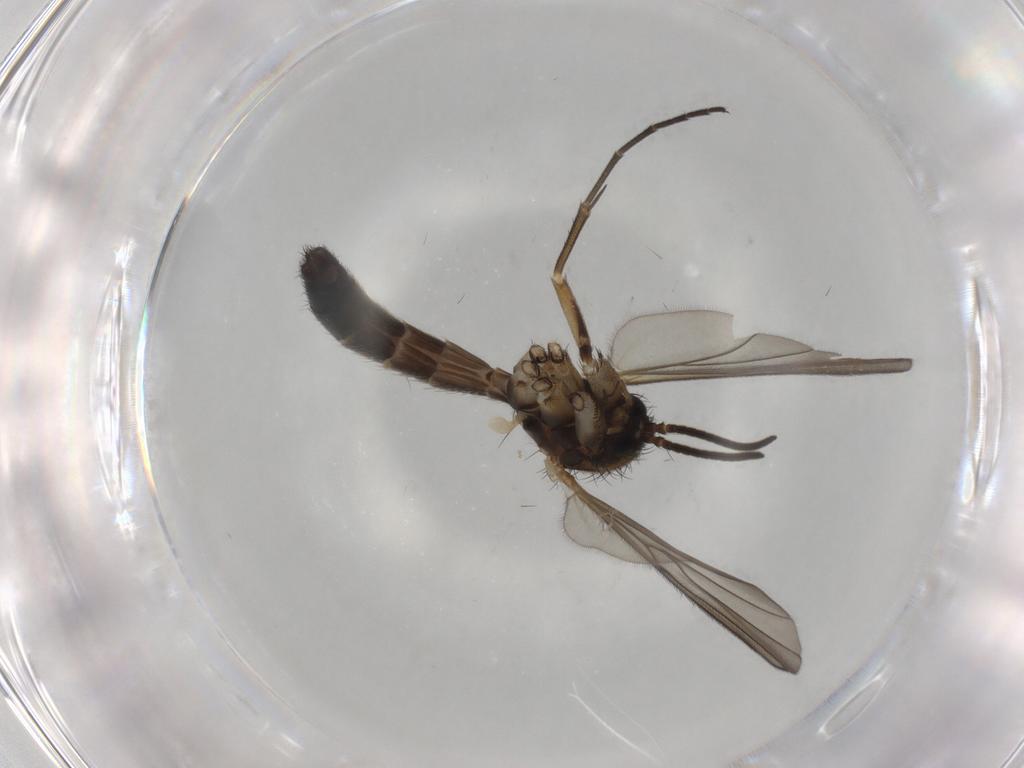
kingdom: Animalia
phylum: Arthropoda
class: Insecta
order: Diptera
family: Mycetophilidae
